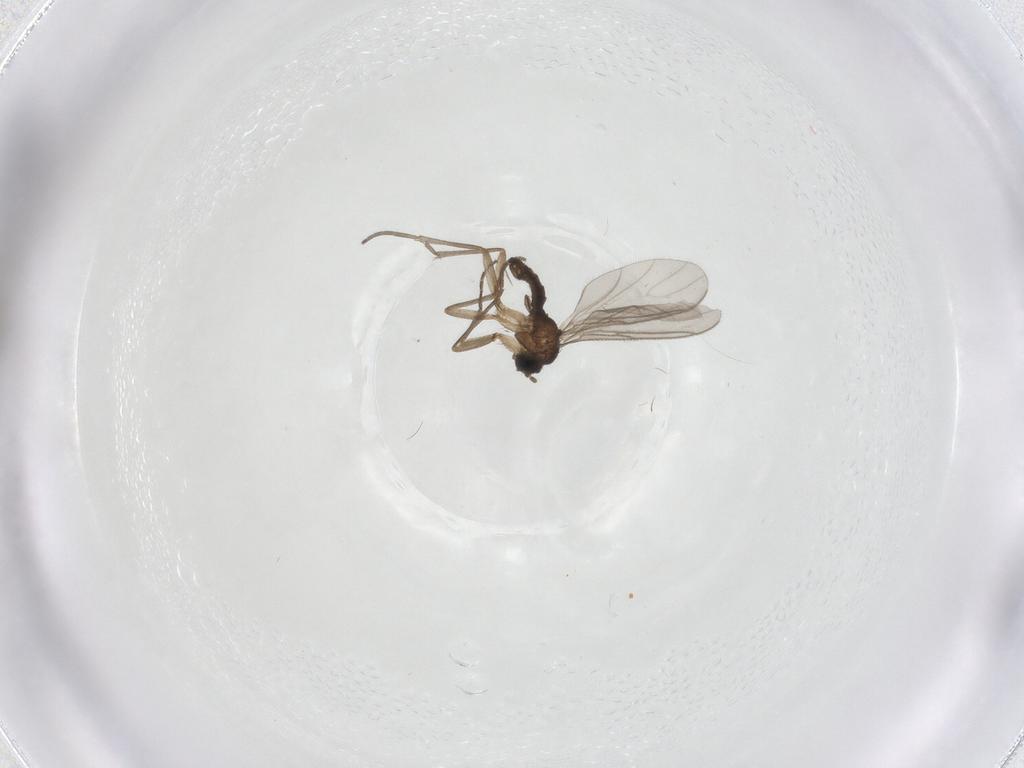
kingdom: Animalia
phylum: Arthropoda
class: Insecta
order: Diptera
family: Sciaridae
